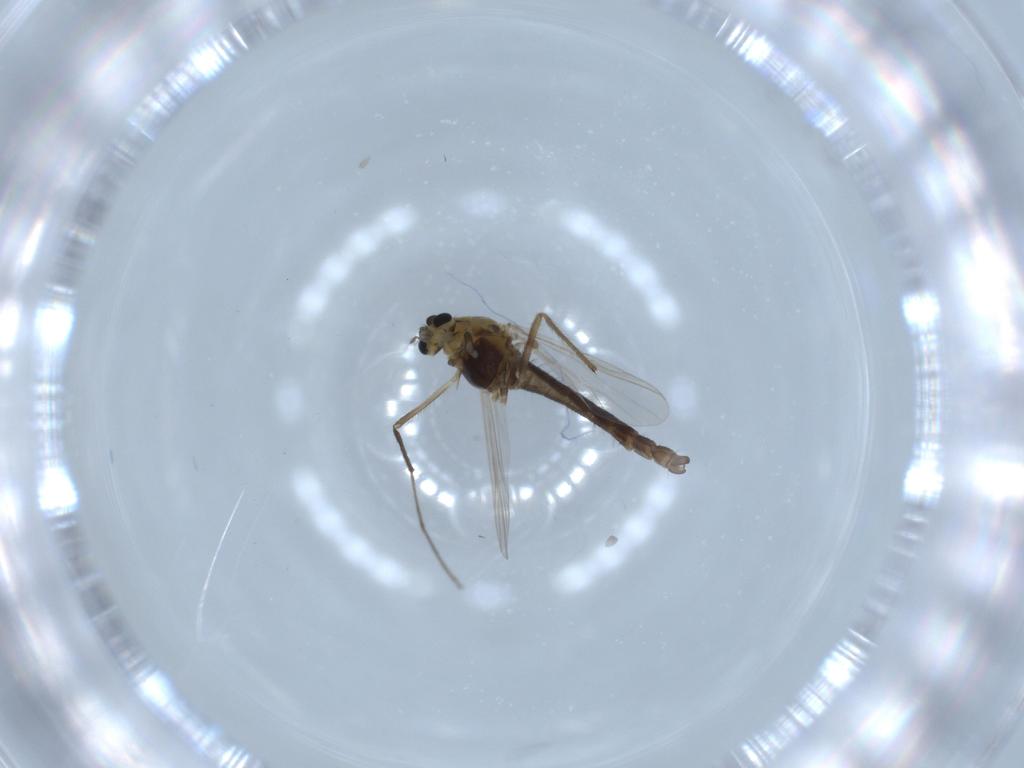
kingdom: Animalia
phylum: Arthropoda
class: Insecta
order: Diptera
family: Chironomidae
